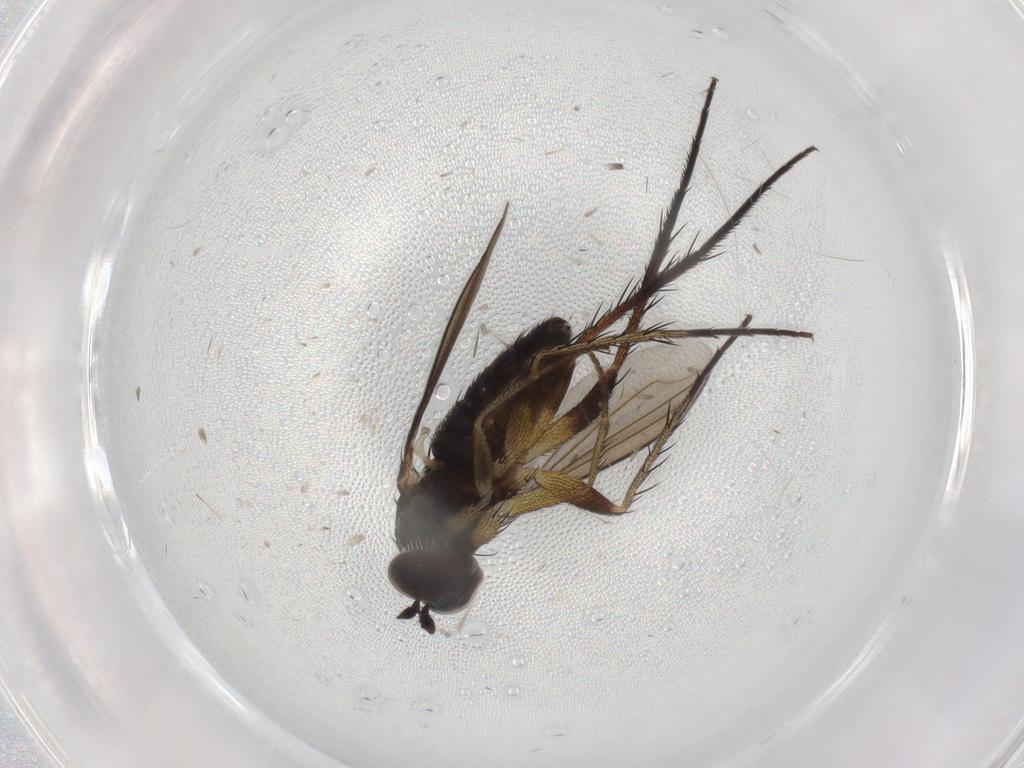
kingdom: Animalia
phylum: Arthropoda
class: Insecta
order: Diptera
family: Dolichopodidae
